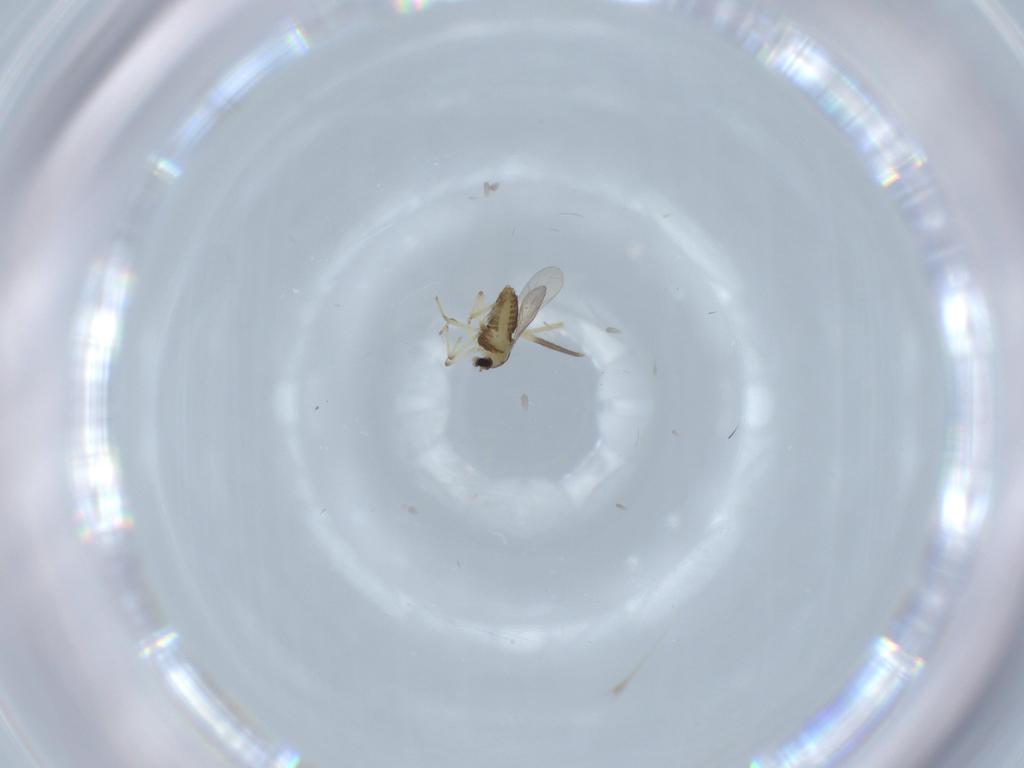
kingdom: Animalia
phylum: Arthropoda
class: Insecta
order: Diptera
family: Chironomidae
